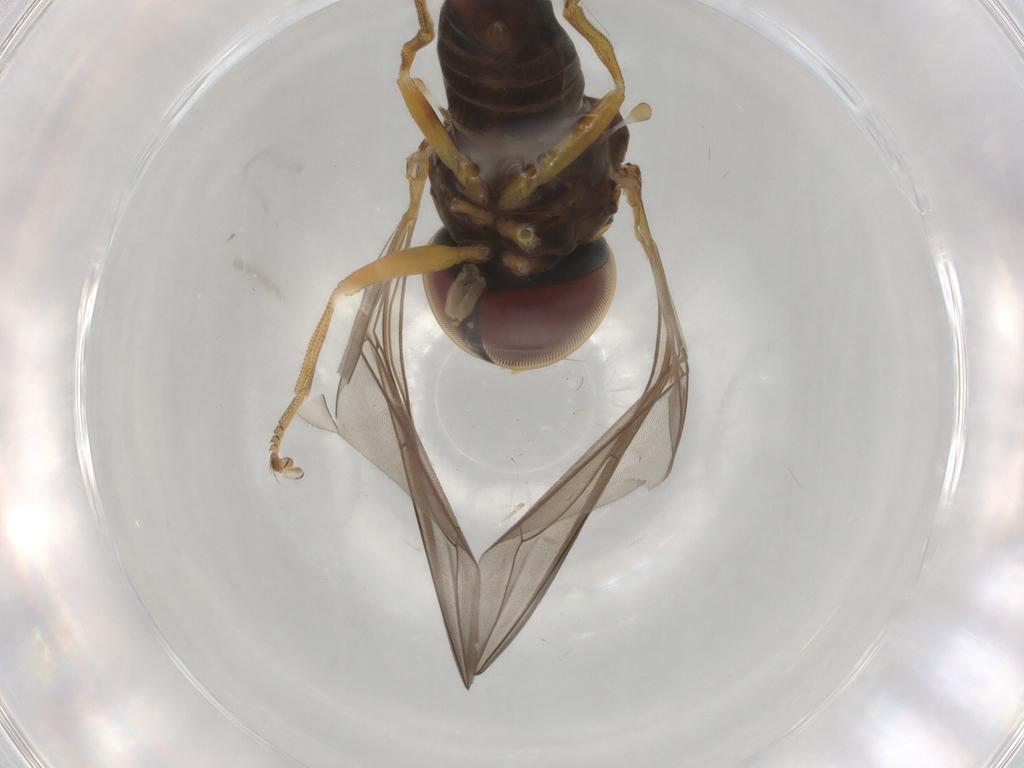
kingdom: Animalia
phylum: Arthropoda
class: Insecta
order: Diptera
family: Pipunculidae
